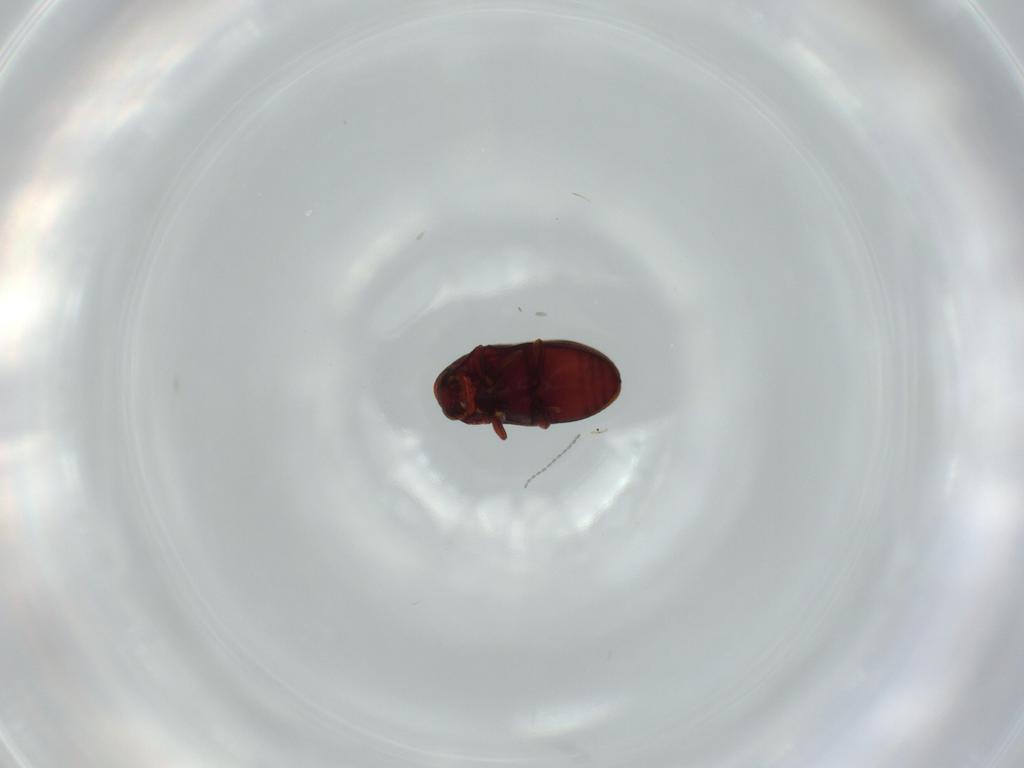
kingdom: Animalia
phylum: Arthropoda
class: Insecta
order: Coleoptera
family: Ptinidae
